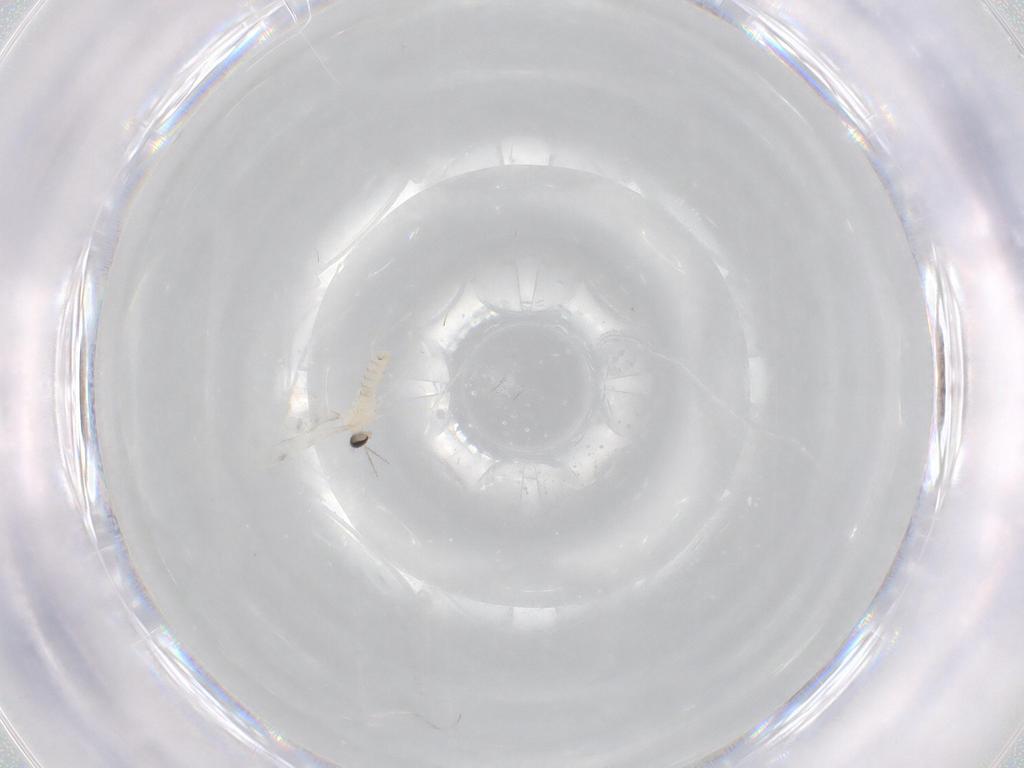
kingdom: Animalia
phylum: Arthropoda
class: Insecta
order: Diptera
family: Cecidomyiidae
